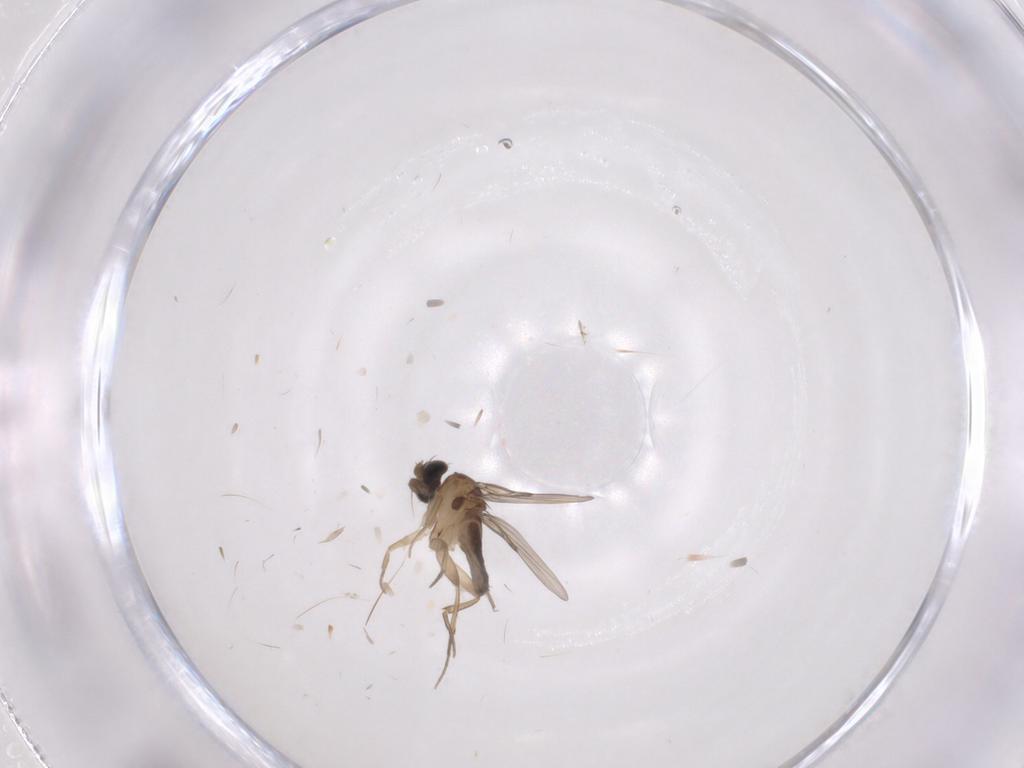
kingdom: Animalia
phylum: Arthropoda
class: Insecta
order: Diptera
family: Phoridae
